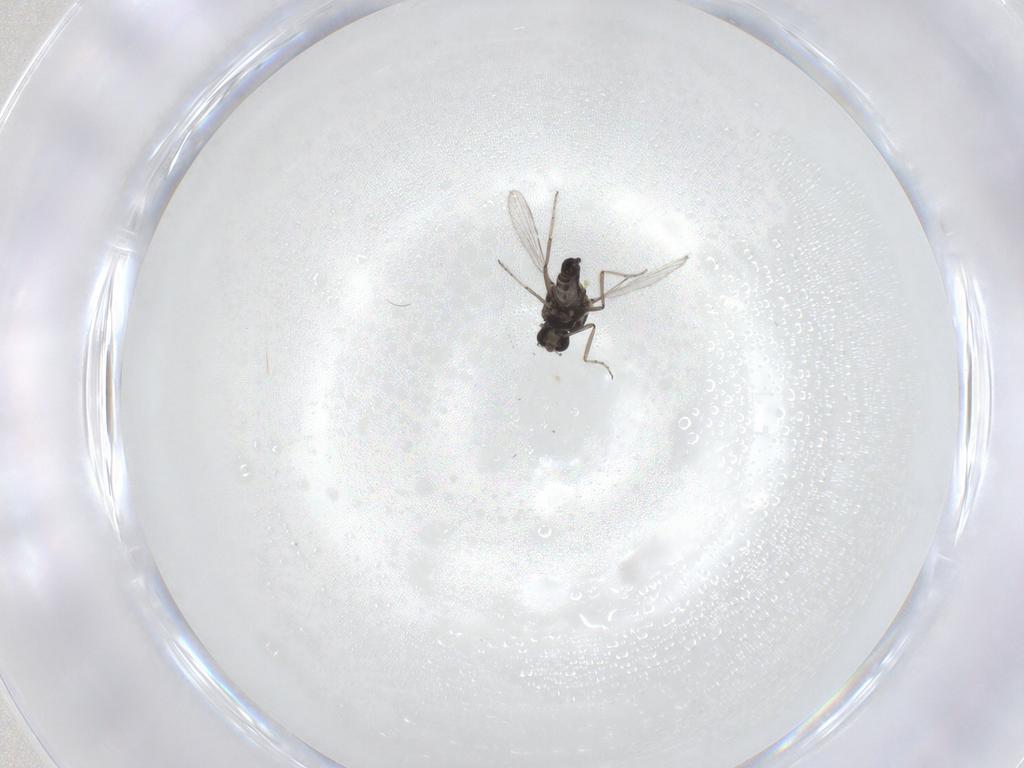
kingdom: Animalia
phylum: Arthropoda
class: Insecta
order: Diptera
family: Ceratopogonidae
